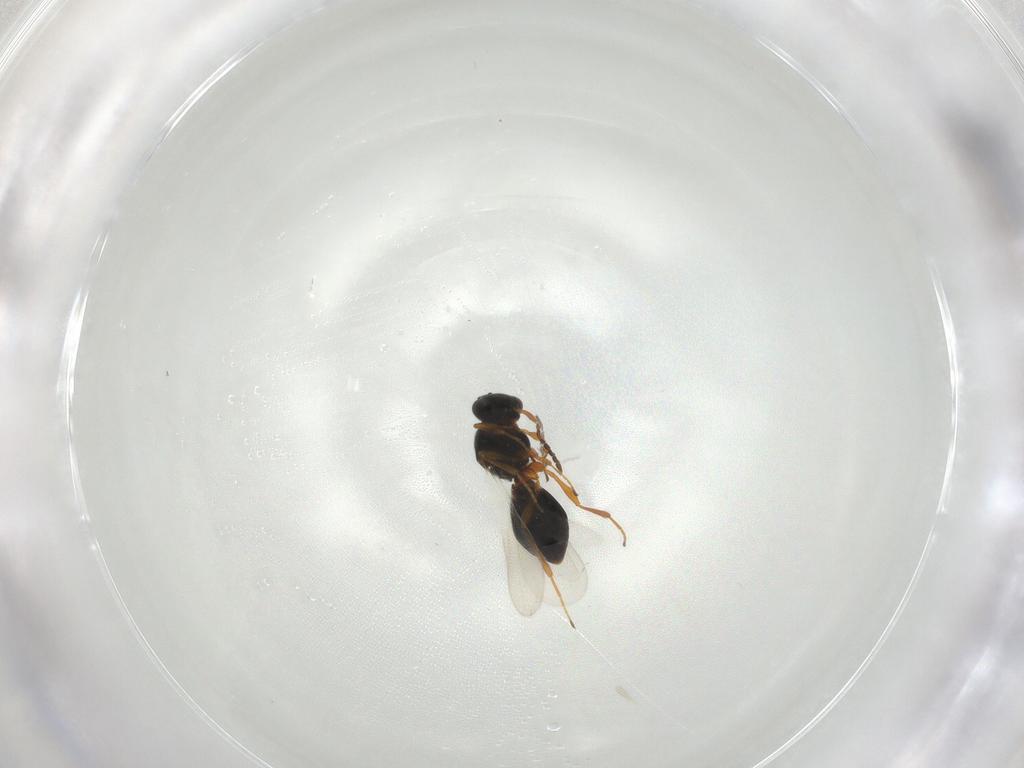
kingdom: Animalia
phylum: Arthropoda
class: Insecta
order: Hymenoptera
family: Platygastridae
